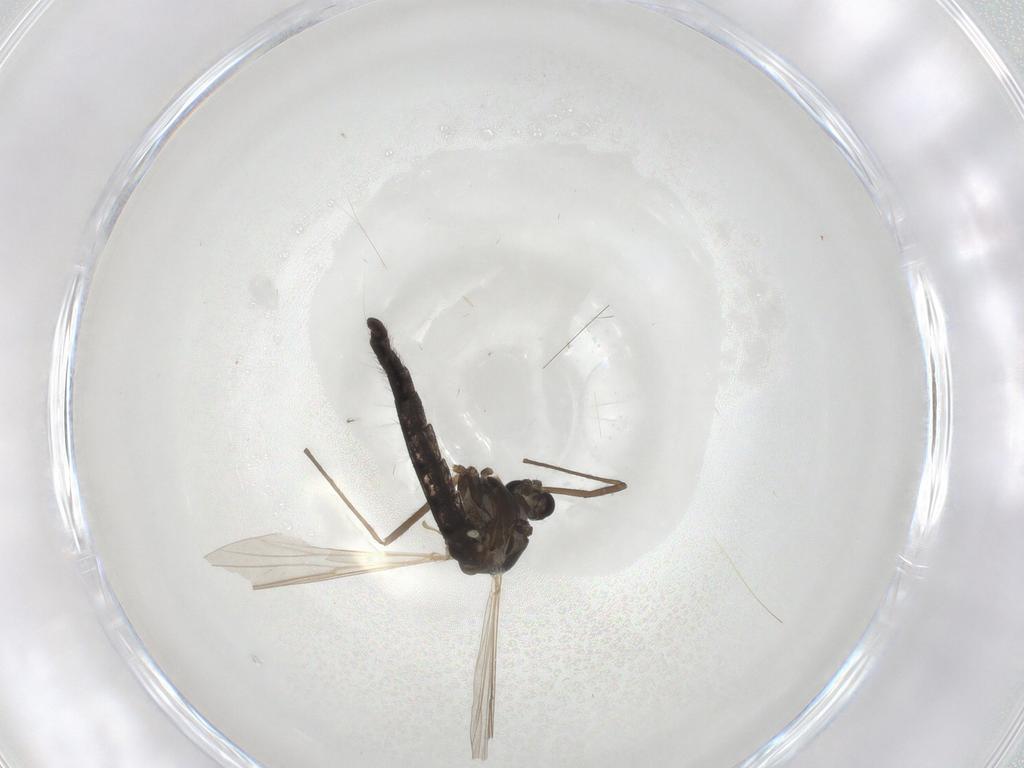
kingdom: Animalia
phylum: Arthropoda
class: Insecta
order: Diptera
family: Chironomidae
